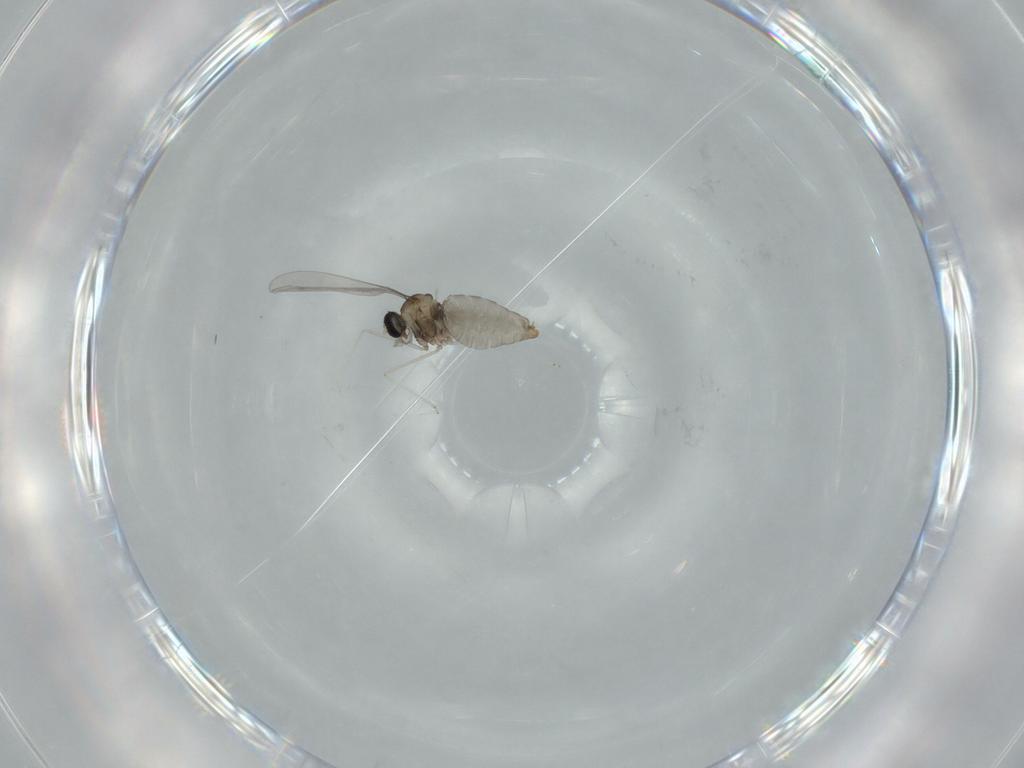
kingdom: Animalia
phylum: Arthropoda
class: Insecta
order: Diptera
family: Cecidomyiidae
